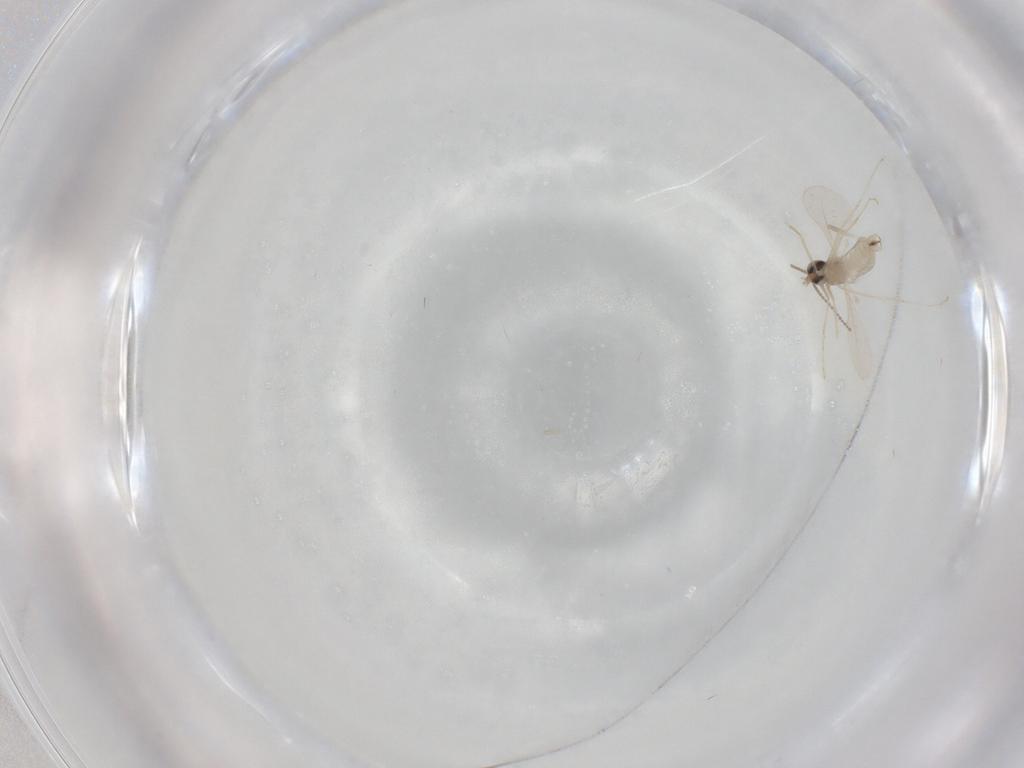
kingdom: Animalia
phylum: Arthropoda
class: Insecta
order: Diptera
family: Cecidomyiidae
